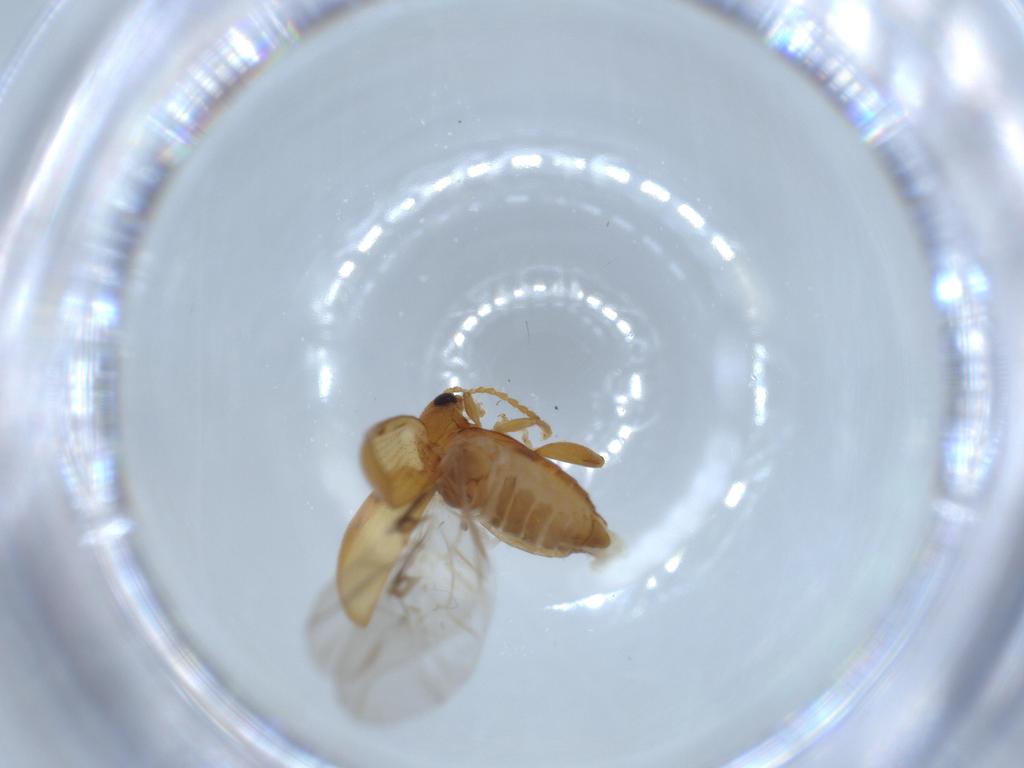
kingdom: Animalia
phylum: Arthropoda
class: Insecta
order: Coleoptera
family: Chrysomelidae
